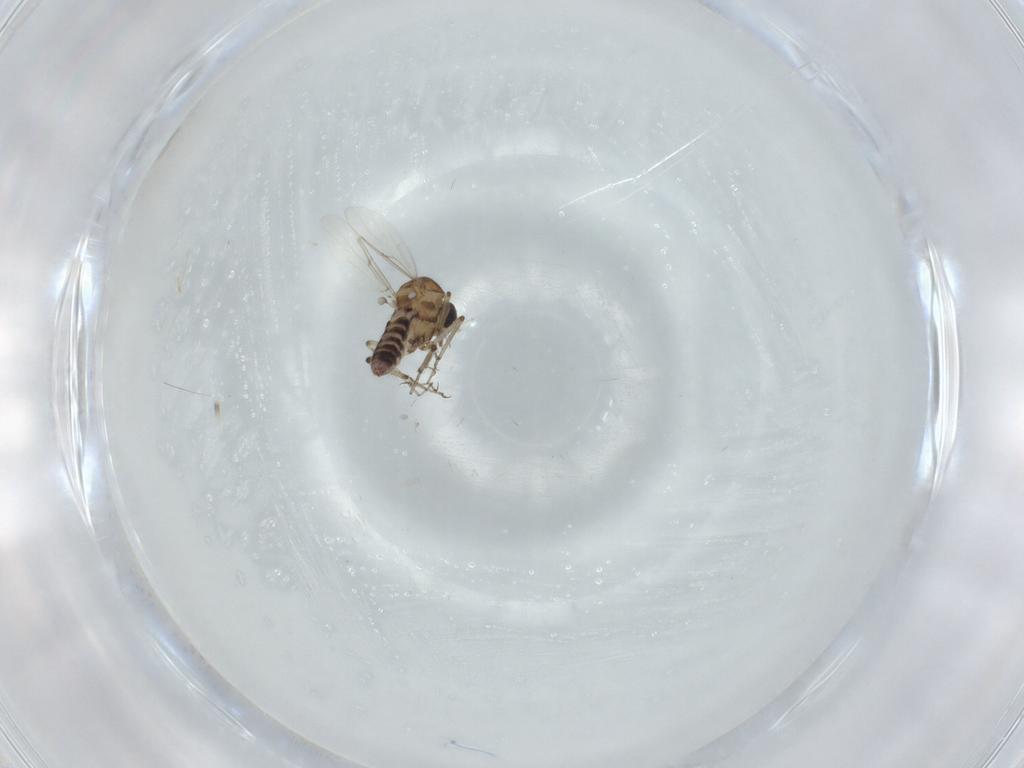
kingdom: Animalia
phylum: Arthropoda
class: Insecta
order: Diptera
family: Ceratopogonidae
